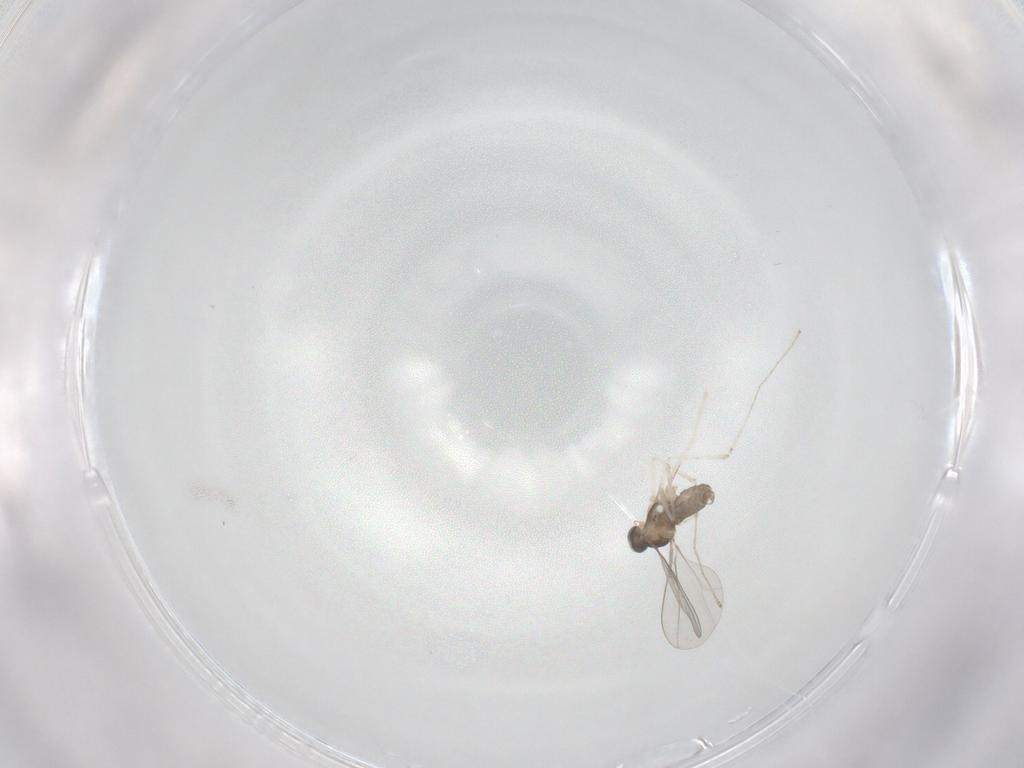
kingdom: Animalia
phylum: Arthropoda
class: Insecta
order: Diptera
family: Cecidomyiidae
